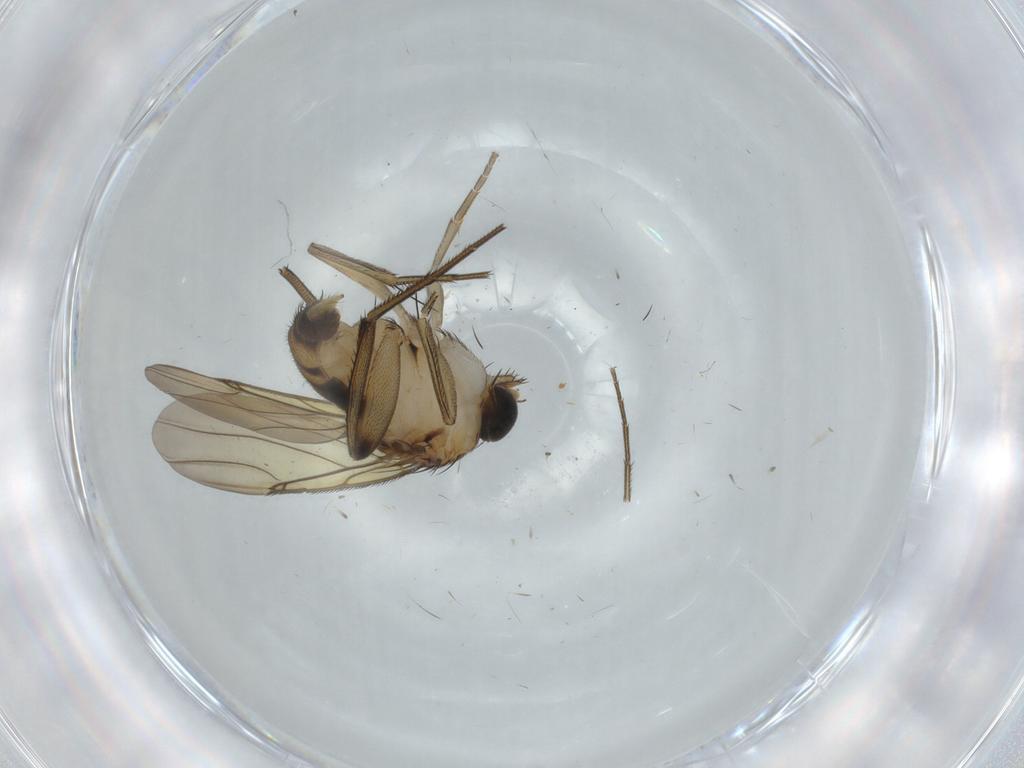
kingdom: Animalia
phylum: Arthropoda
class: Insecta
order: Diptera
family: Phoridae
